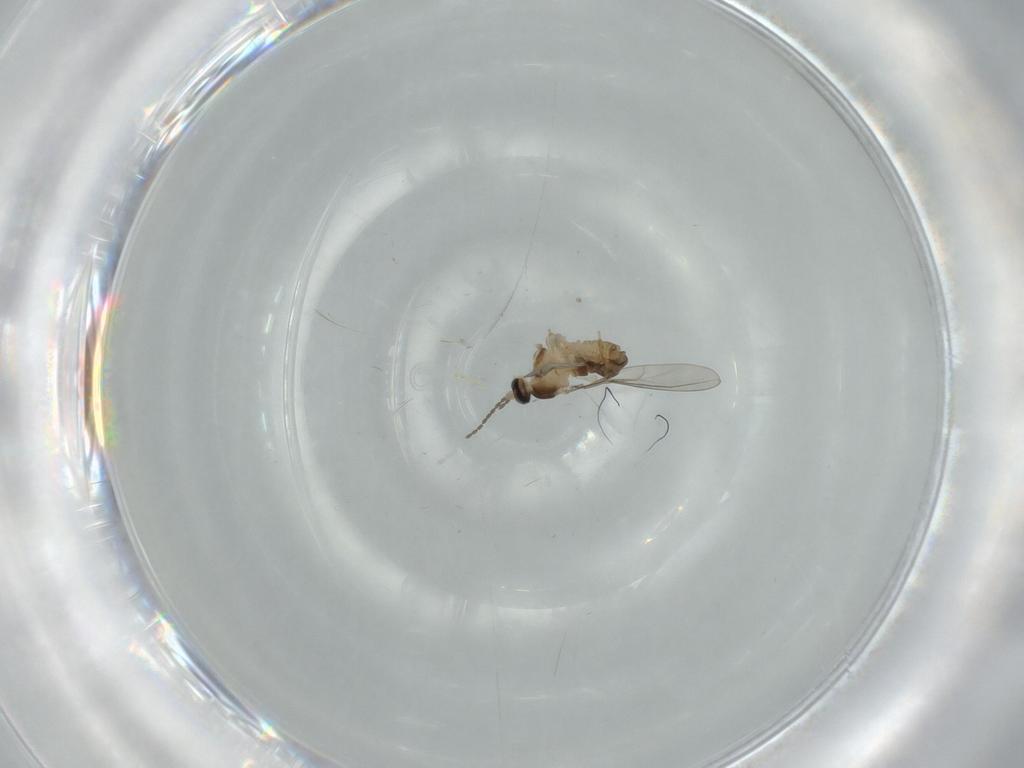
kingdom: Animalia
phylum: Arthropoda
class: Insecta
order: Diptera
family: Cecidomyiidae
